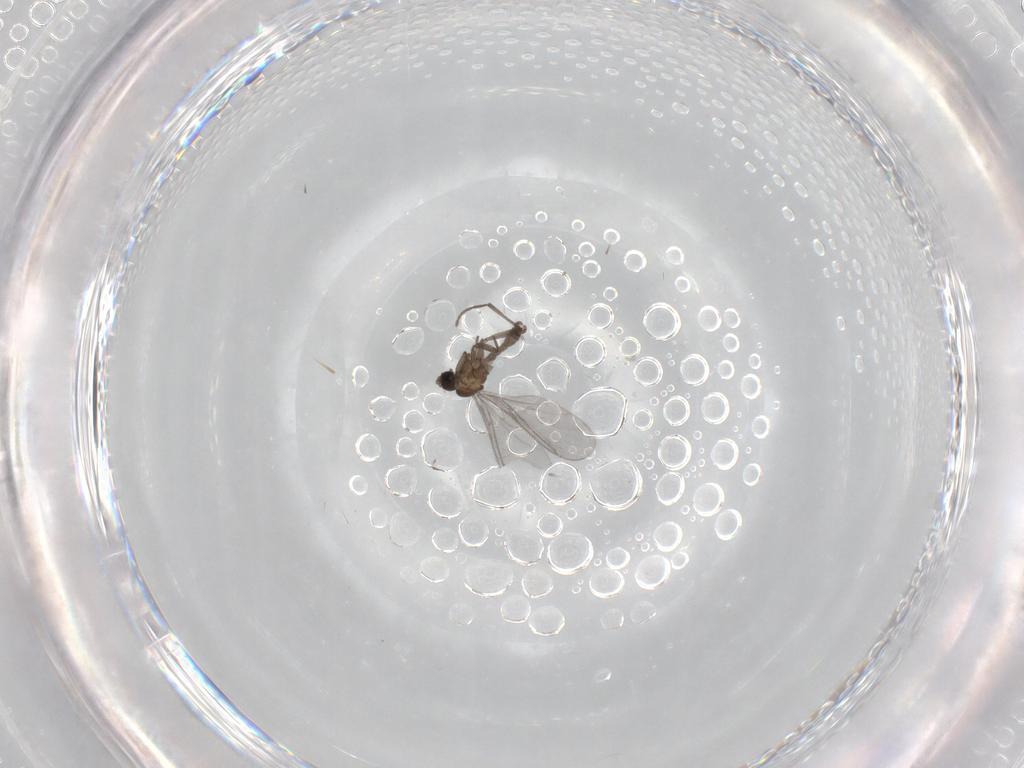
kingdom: Animalia
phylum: Arthropoda
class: Insecta
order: Diptera
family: Sciaridae
